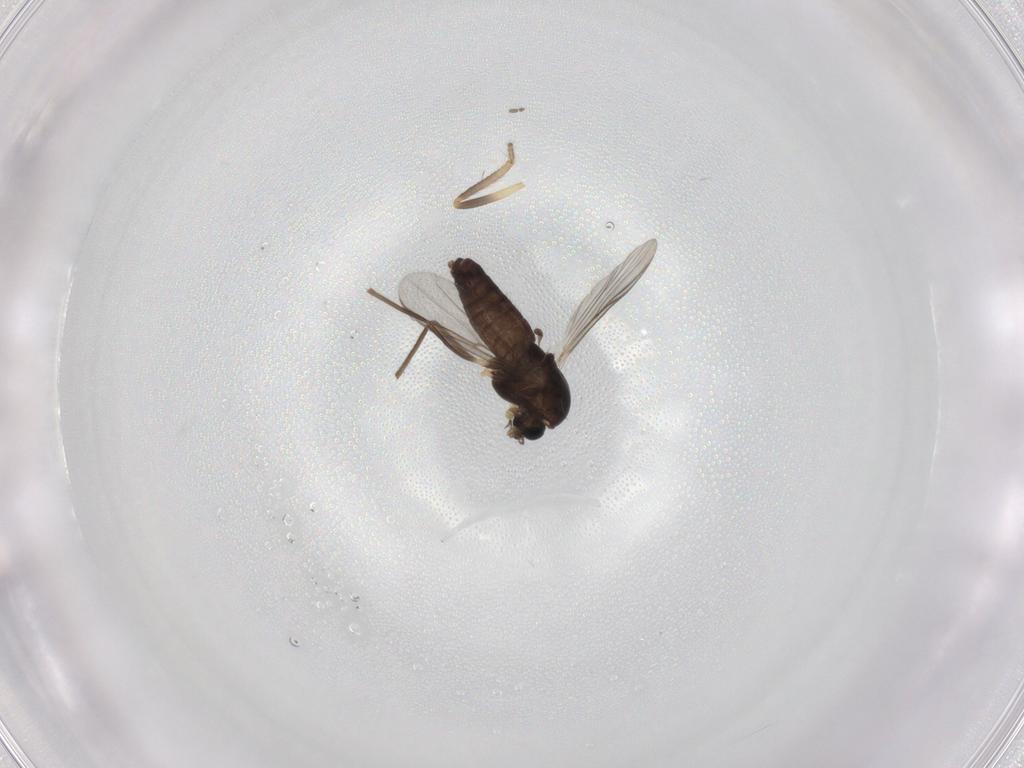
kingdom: Animalia
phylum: Arthropoda
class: Insecta
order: Diptera
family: Chironomidae
